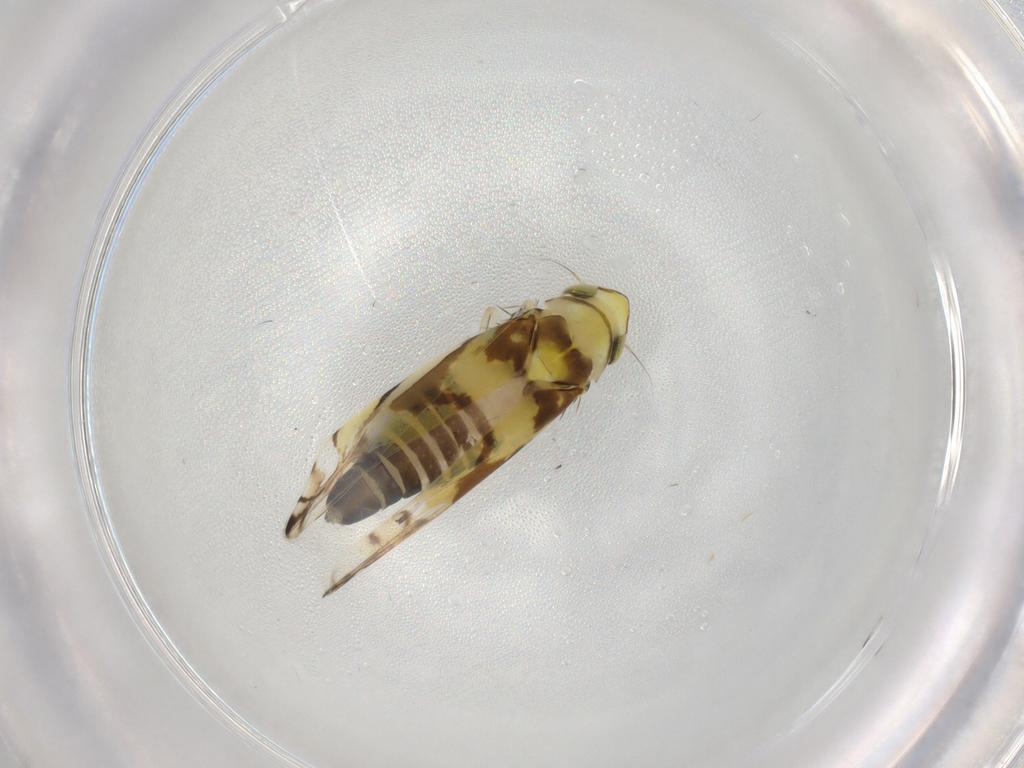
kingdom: Animalia
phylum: Arthropoda
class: Insecta
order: Hemiptera
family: Cicadellidae
